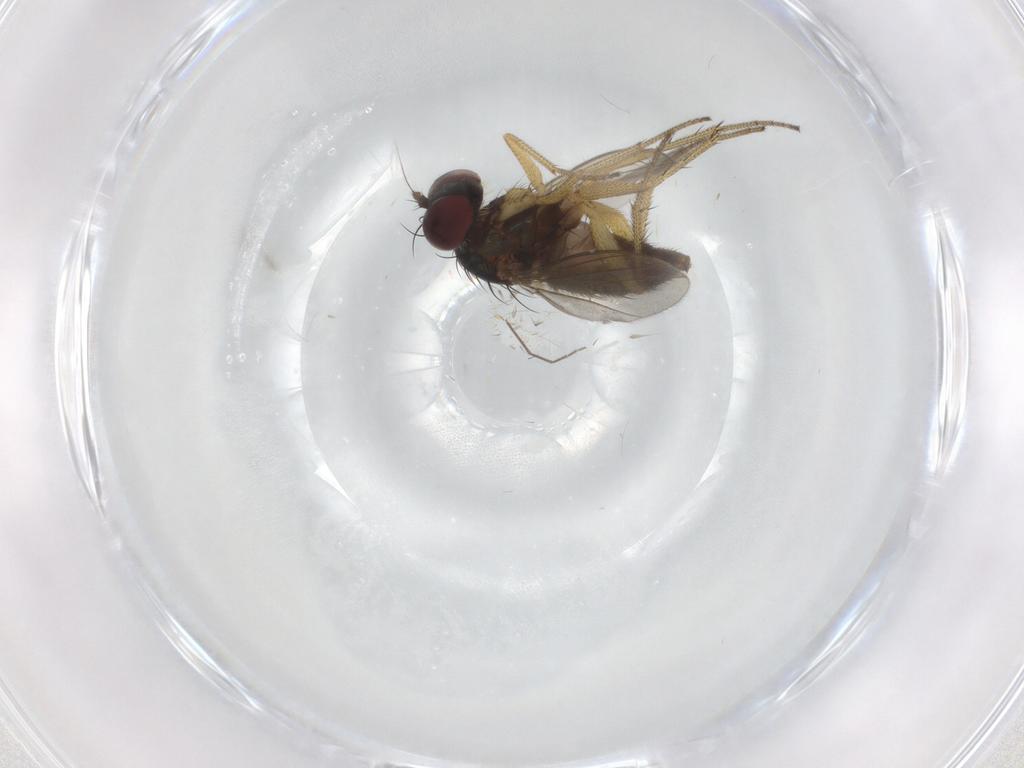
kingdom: Animalia
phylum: Arthropoda
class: Insecta
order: Diptera
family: Dolichopodidae
